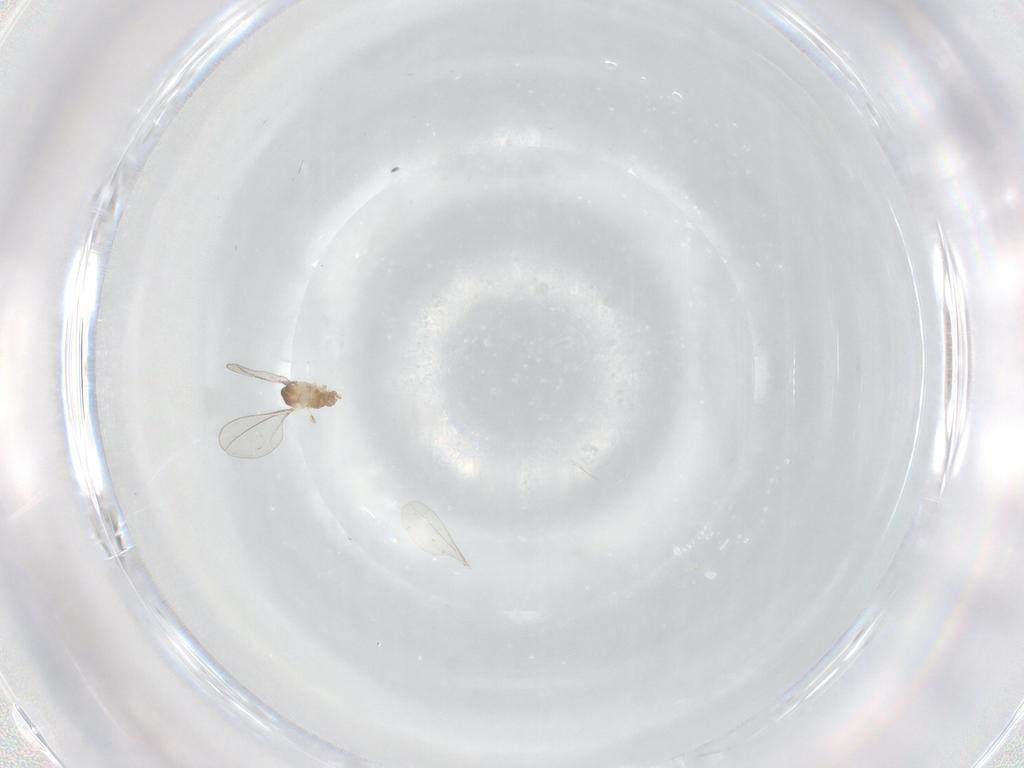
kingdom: Animalia
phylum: Arthropoda
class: Insecta
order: Diptera
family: Cecidomyiidae
